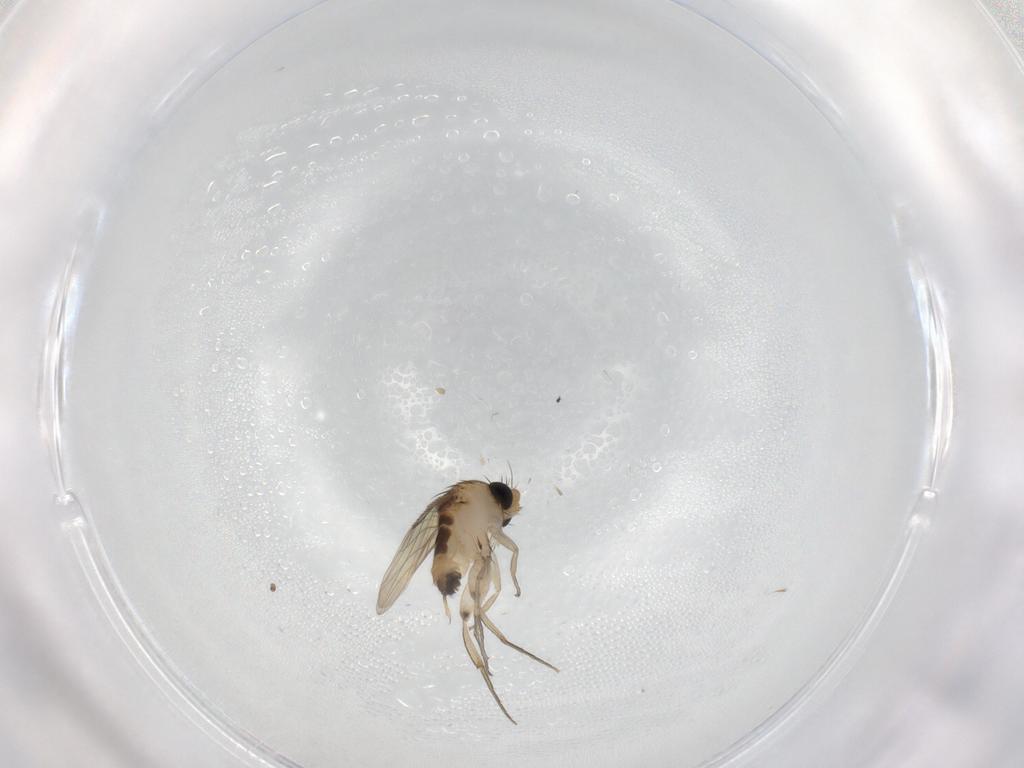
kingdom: Animalia
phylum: Arthropoda
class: Insecta
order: Diptera
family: Phoridae
